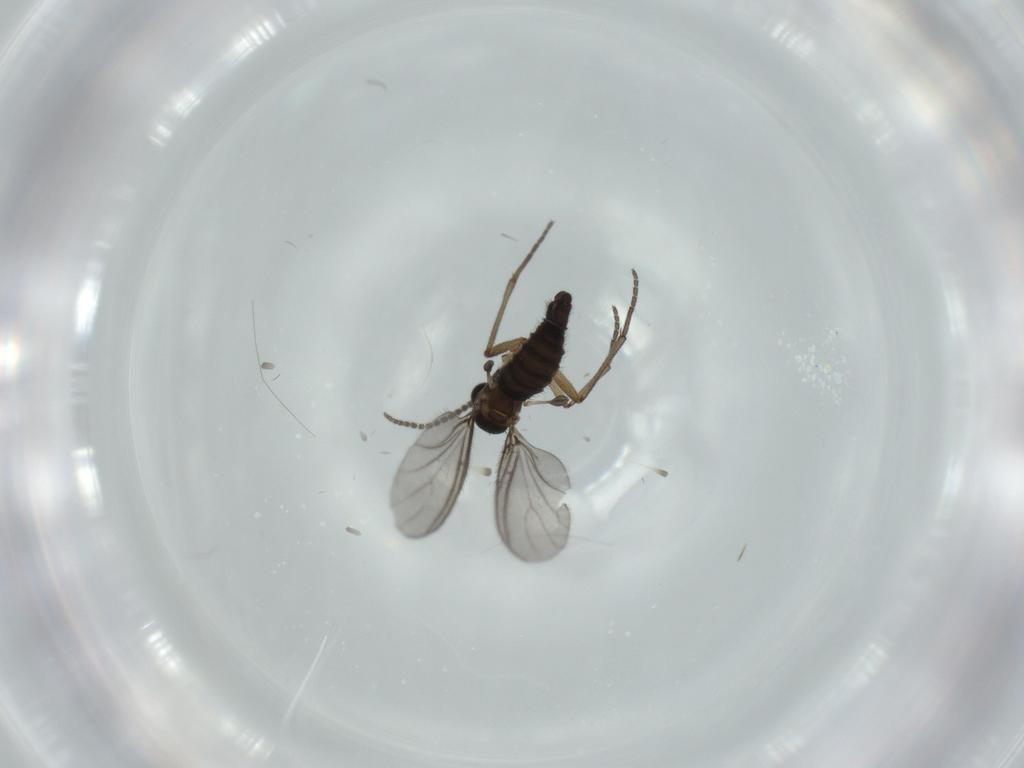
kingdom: Animalia
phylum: Arthropoda
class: Insecta
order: Diptera
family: Sciaridae
